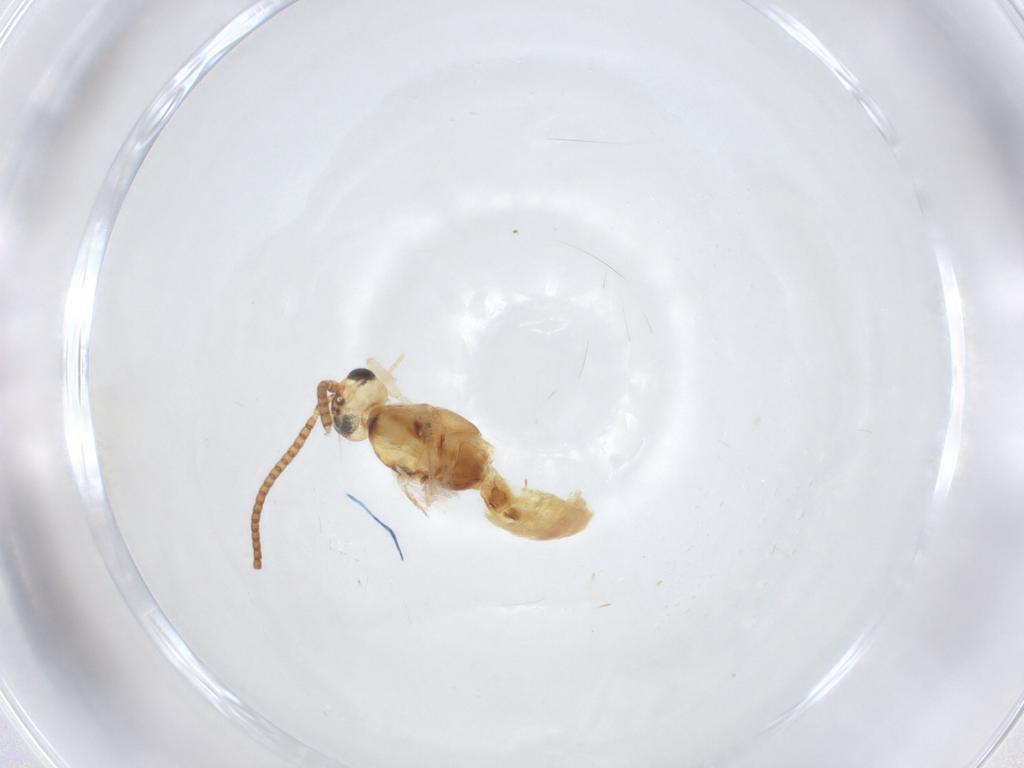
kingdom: Animalia
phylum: Arthropoda
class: Insecta
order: Hymenoptera
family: Braconidae
